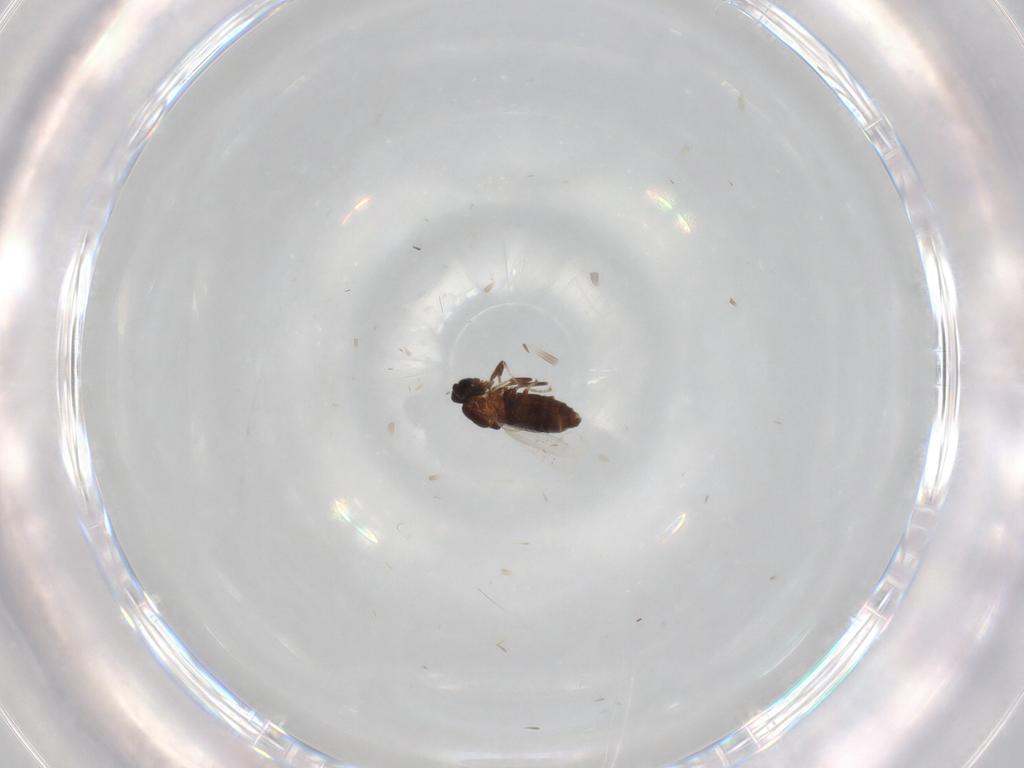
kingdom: Animalia
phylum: Arthropoda
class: Insecta
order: Diptera
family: Scatopsidae
